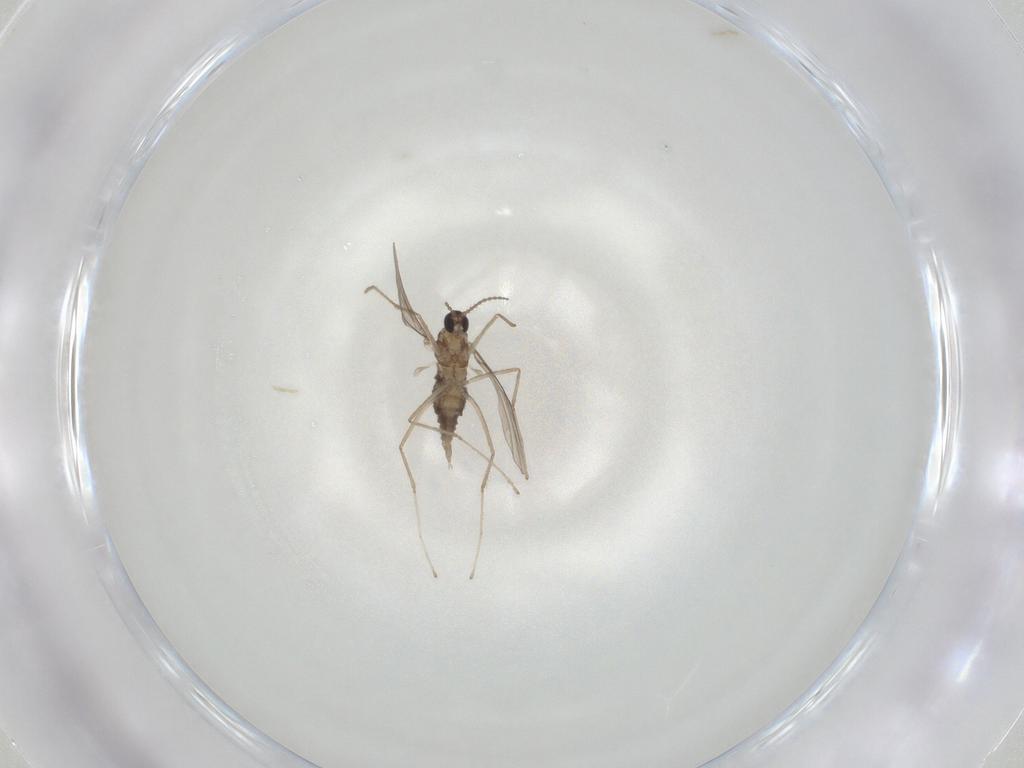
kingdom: Animalia
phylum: Arthropoda
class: Insecta
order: Diptera
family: Cecidomyiidae
